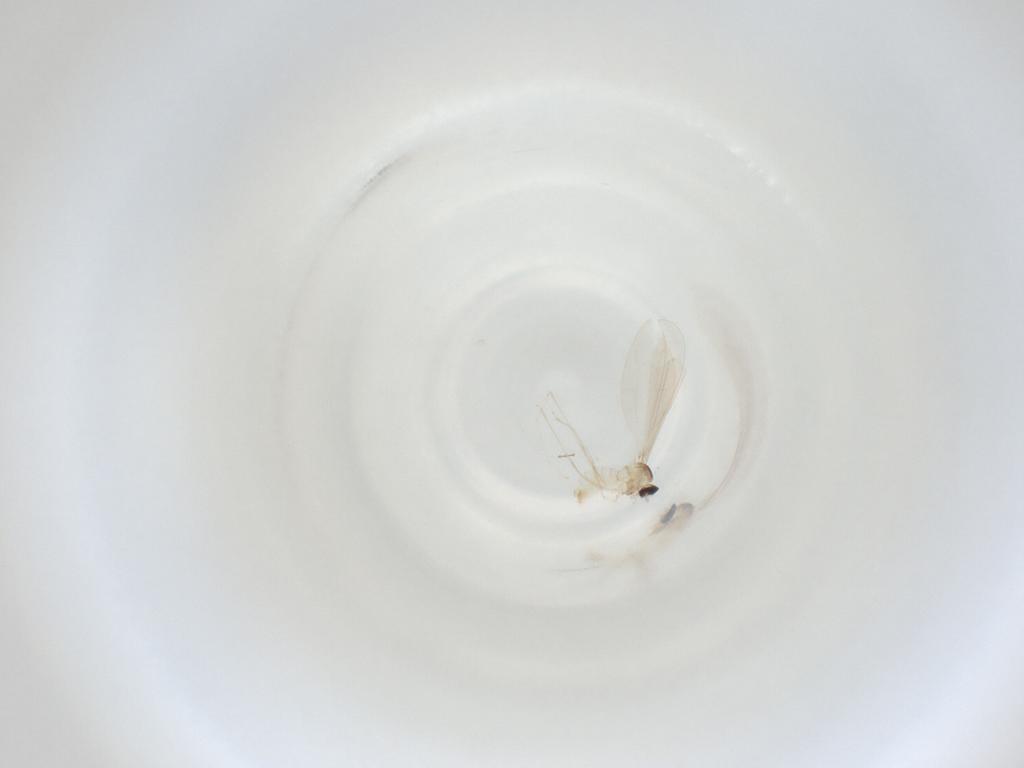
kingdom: Animalia
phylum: Arthropoda
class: Insecta
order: Diptera
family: Cecidomyiidae
